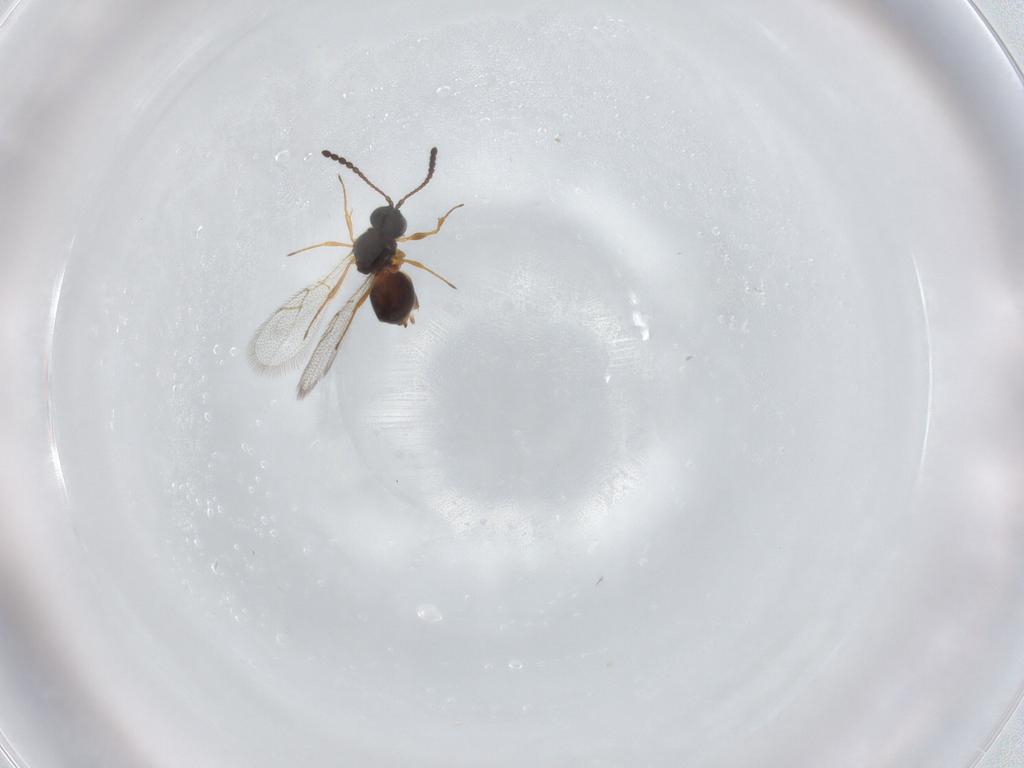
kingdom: Animalia
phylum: Arthropoda
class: Insecta
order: Hymenoptera
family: Figitidae
